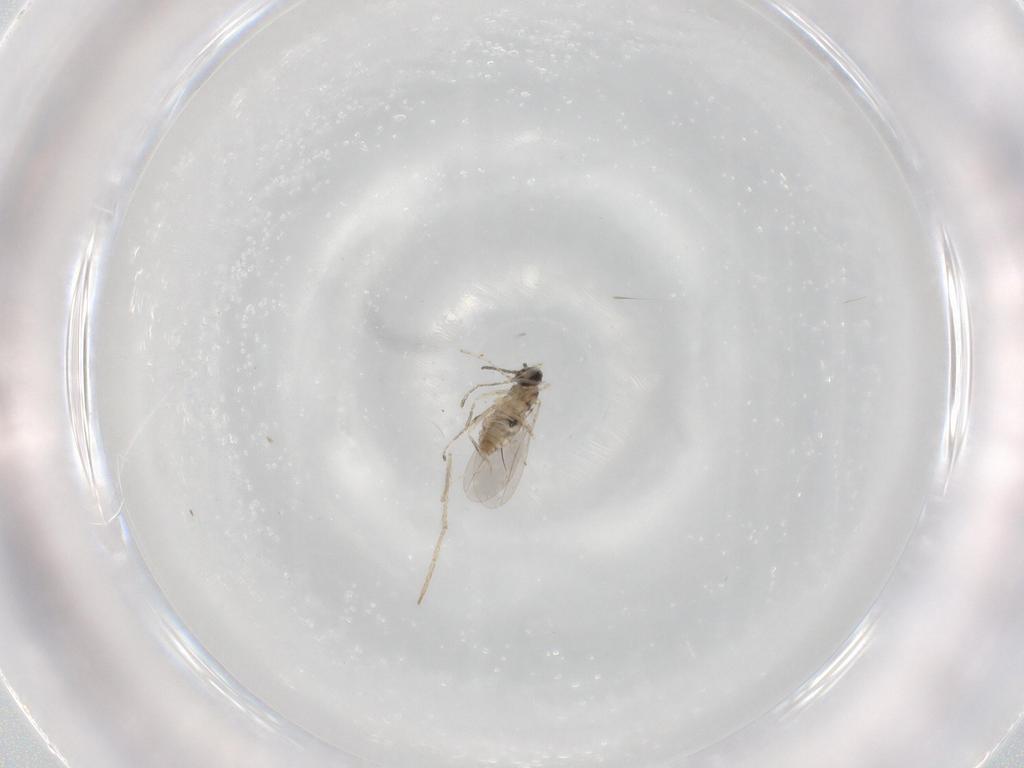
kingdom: Animalia
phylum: Arthropoda
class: Insecta
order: Diptera
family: Cecidomyiidae
